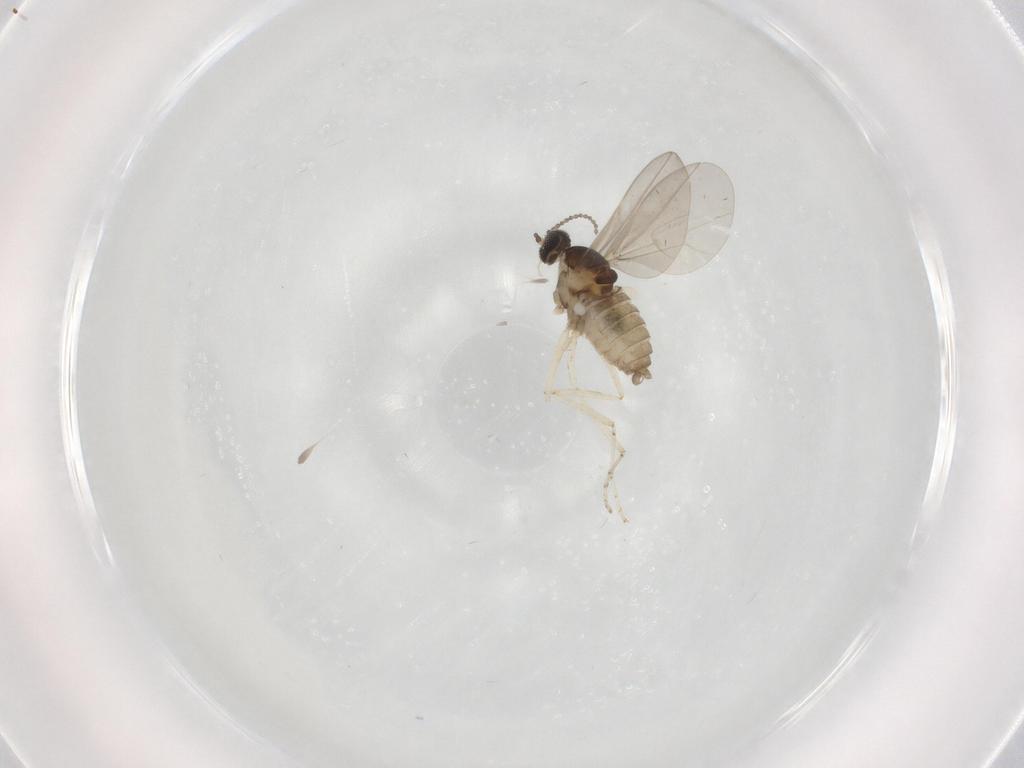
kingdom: Animalia
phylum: Arthropoda
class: Insecta
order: Diptera
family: Cecidomyiidae
